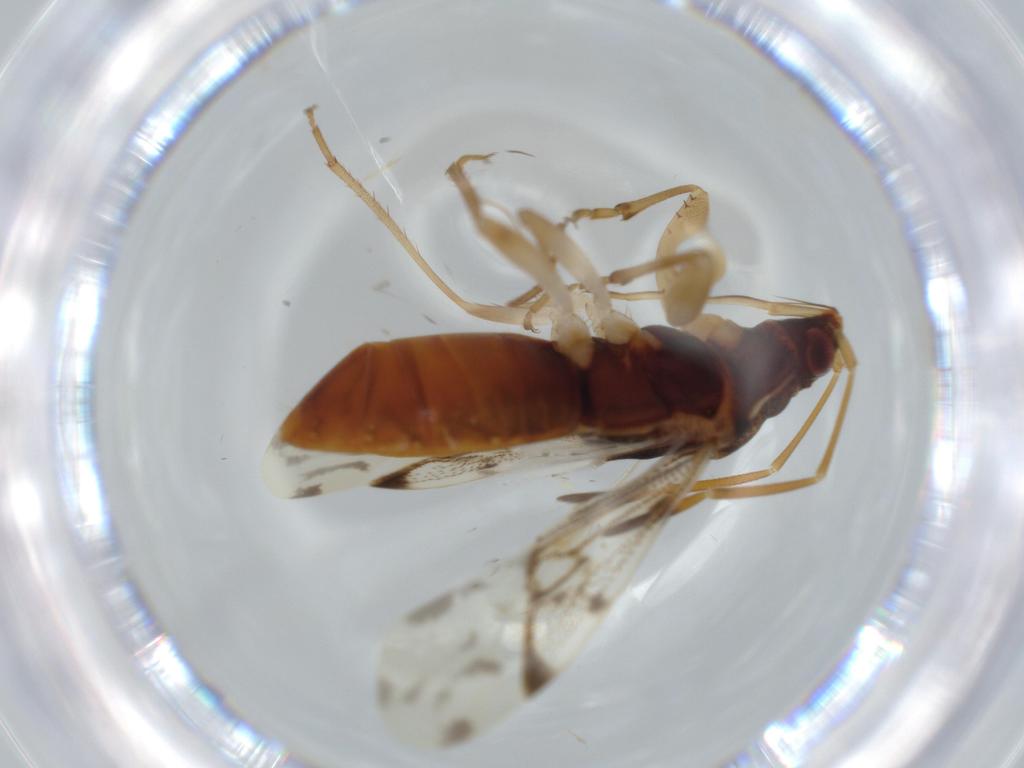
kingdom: Animalia
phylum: Arthropoda
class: Insecta
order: Hemiptera
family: Rhyparochromidae
